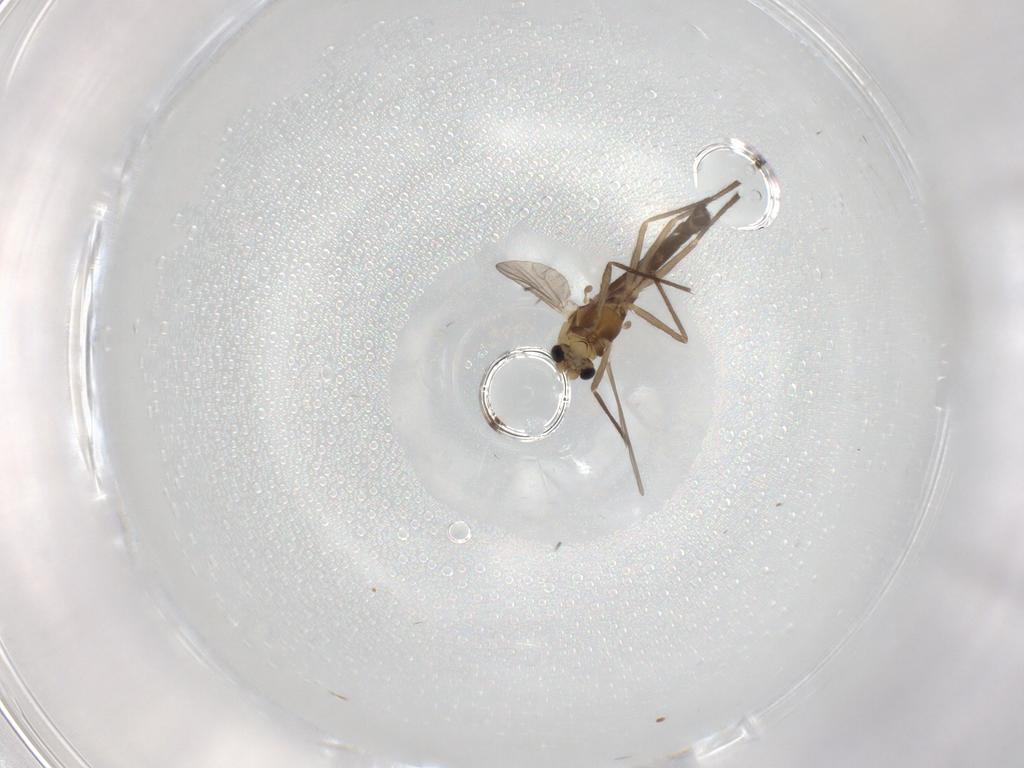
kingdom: Animalia
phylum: Arthropoda
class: Insecta
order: Diptera
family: Chironomidae
